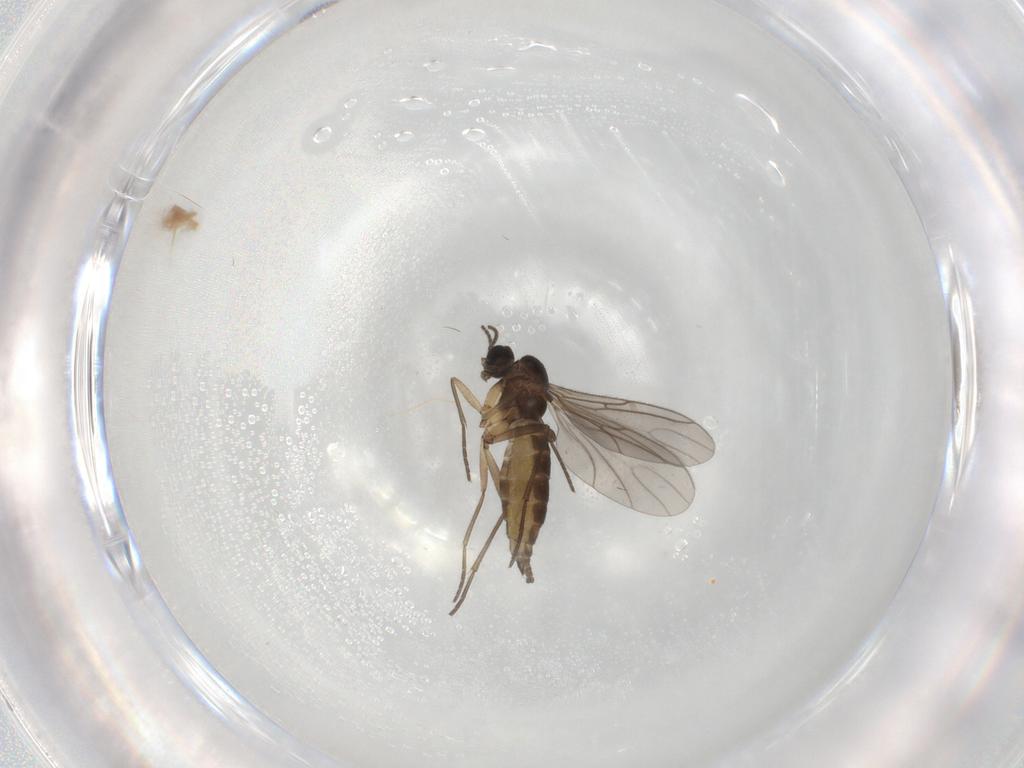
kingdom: Animalia
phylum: Arthropoda
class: Insecta
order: Diptera
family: Sciaridae
